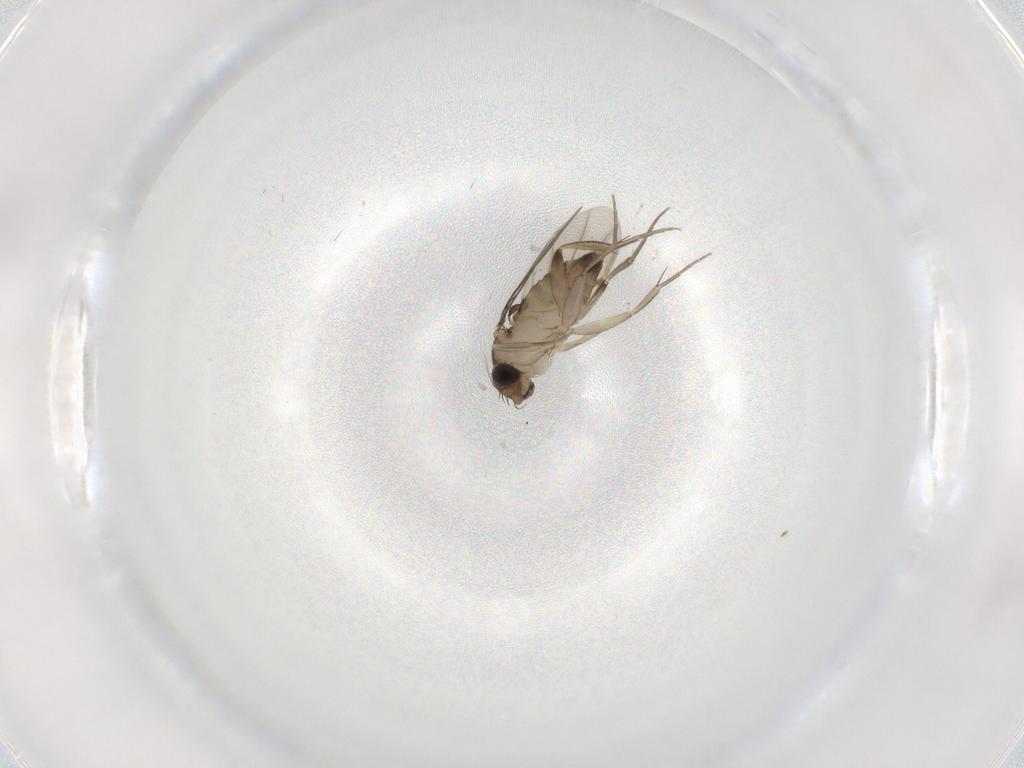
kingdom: Animalia
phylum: Arthropoda
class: Insecta
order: Diptera
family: Phoridae
